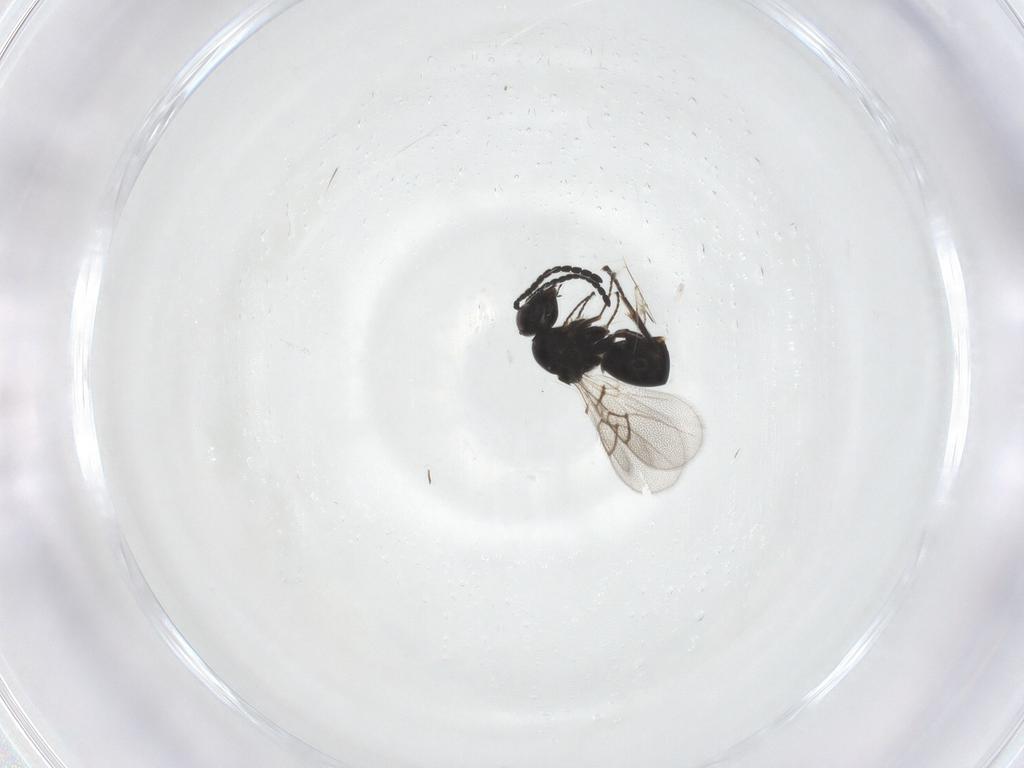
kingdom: Animalia
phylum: Arthropoda
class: Insecta
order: Hymenoptera
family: Figitidae
